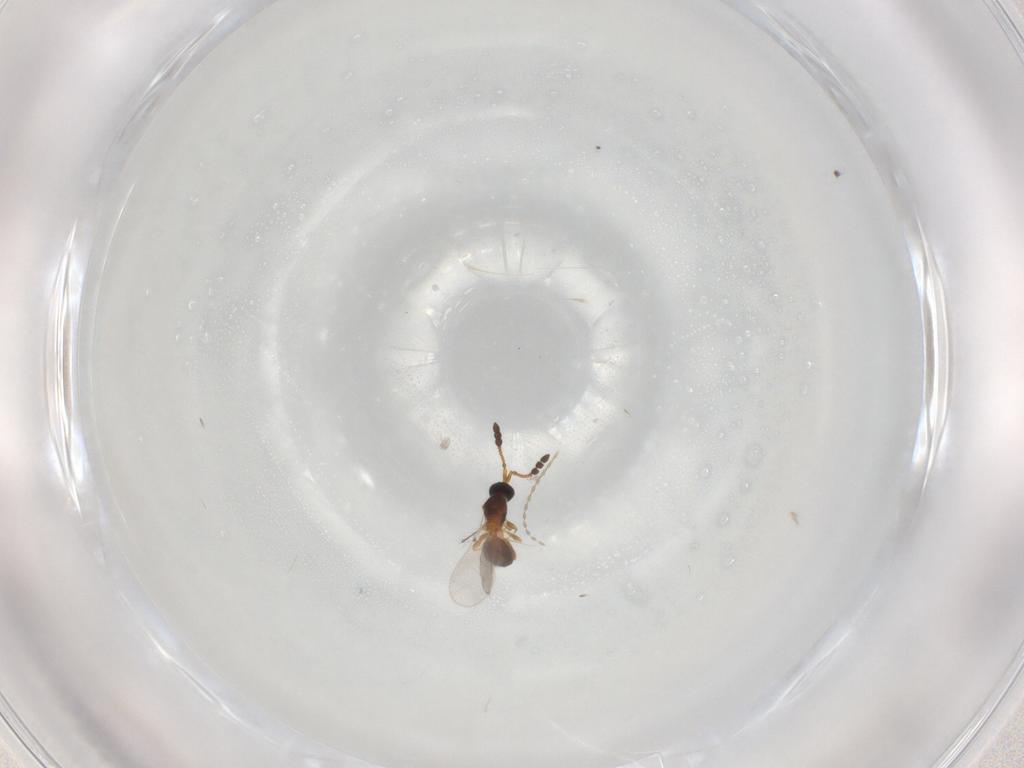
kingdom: Animalia
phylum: Arthropoda
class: Insecta
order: Hymenoptera
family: Diapriidae
